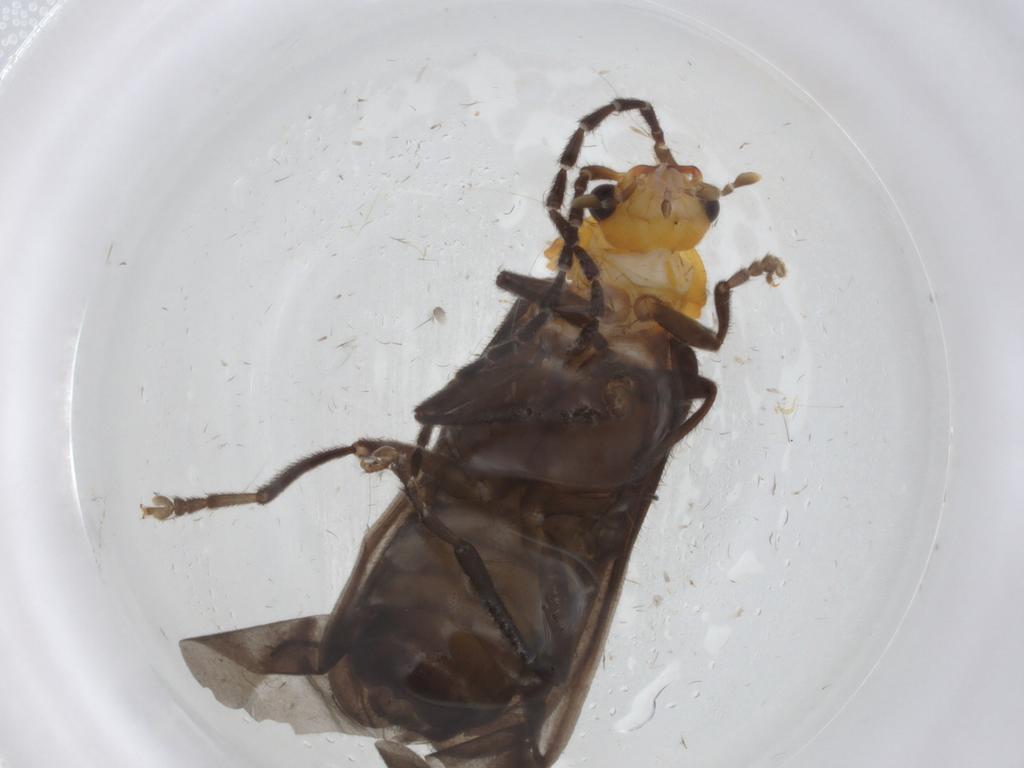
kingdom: Animalia
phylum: Arthropoda
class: Insecta
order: Coleoptera
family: Cantharidae
